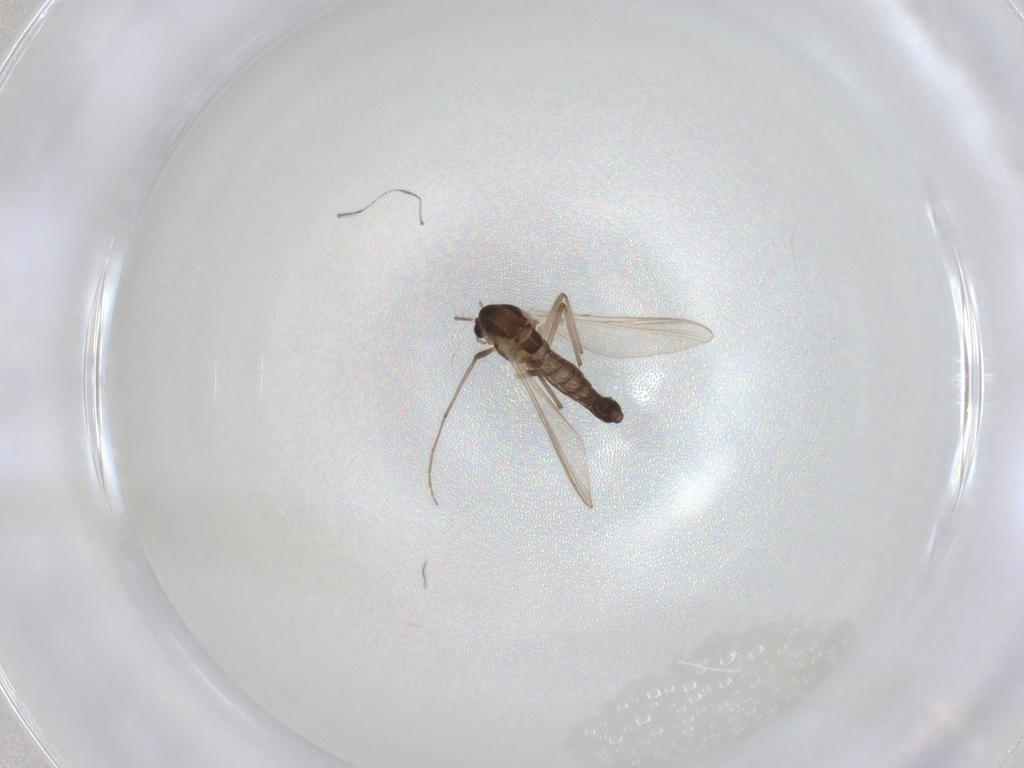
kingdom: Animalia
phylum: Arthropoda
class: Insecta
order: Diptera
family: Chironomidae
